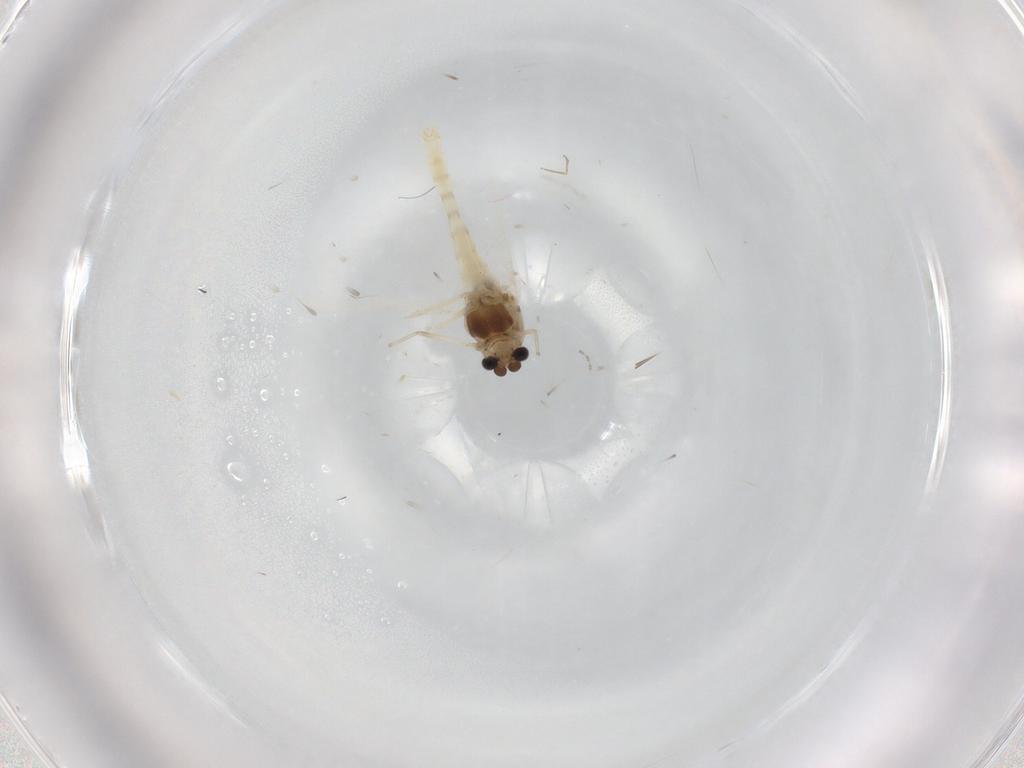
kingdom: Animalia
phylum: Arthropoda
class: Insecta
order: Diptera
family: Chironomidae
